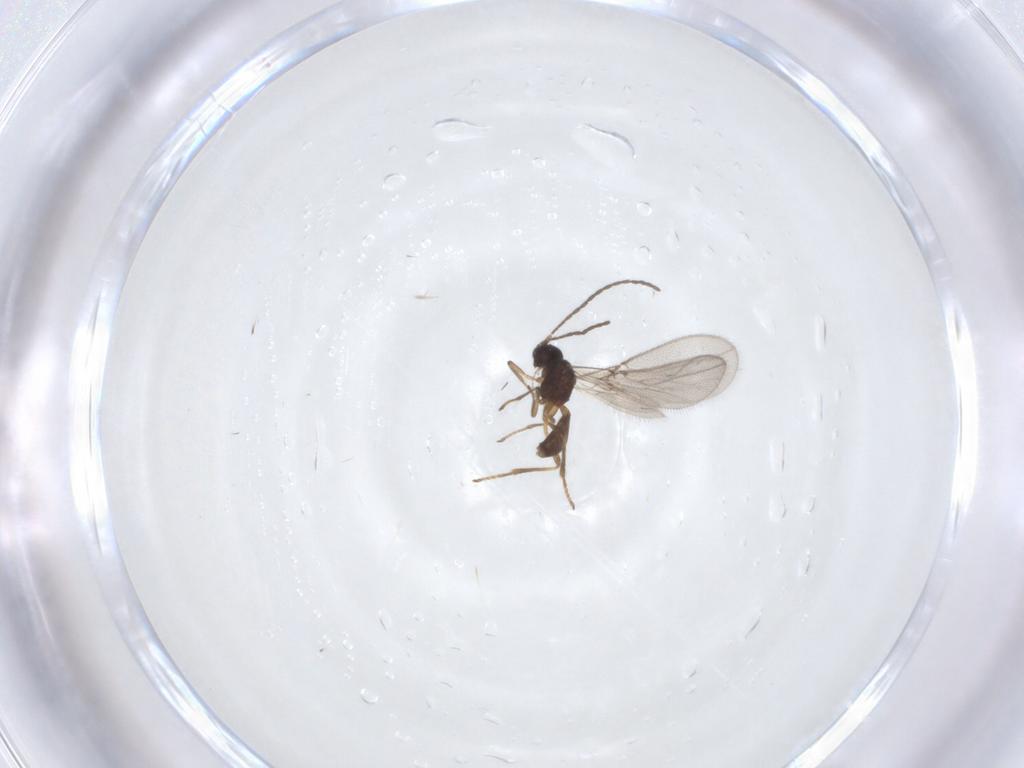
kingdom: Animalia
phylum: Arthropoda
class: Insecta
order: Hymenoptera
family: Braconidae
